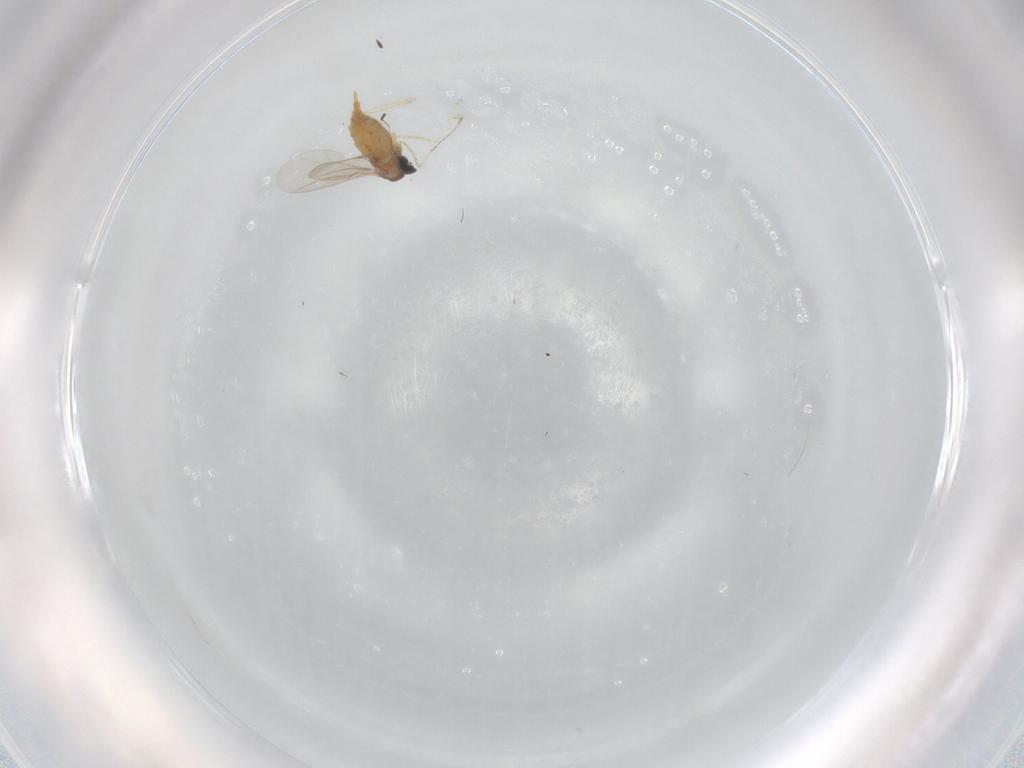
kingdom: Animalia
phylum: Arthropoda
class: Insecta
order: Diptera
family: Cecidomyiidae
